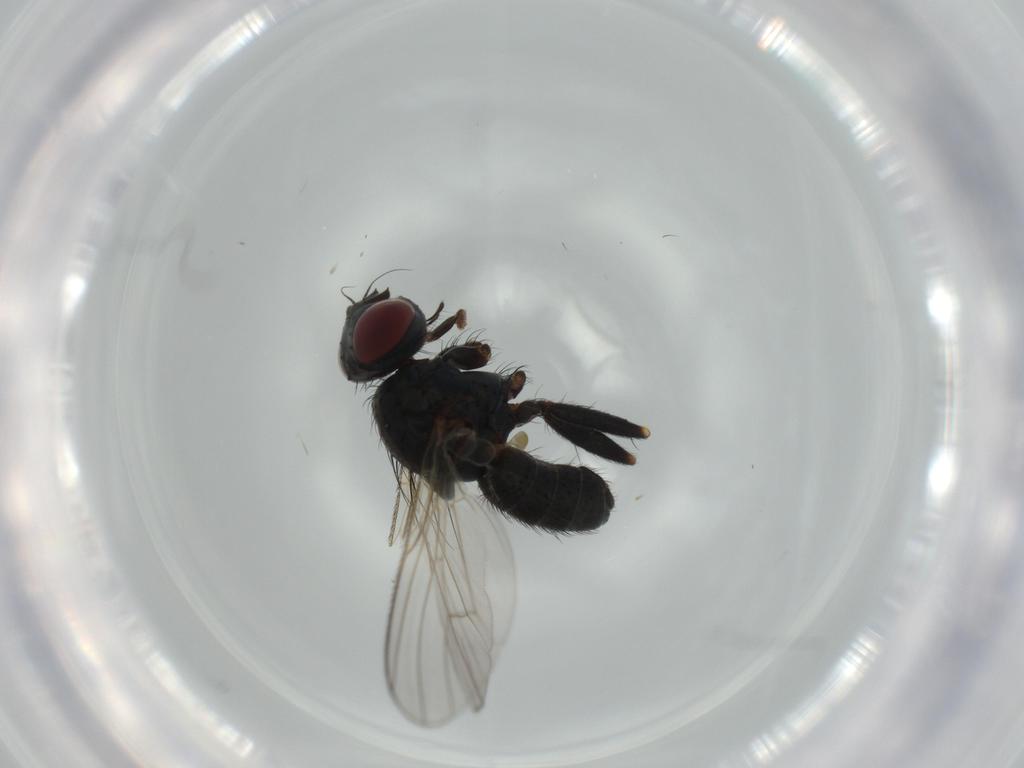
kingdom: Animalia
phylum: Arthropoda
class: Insecta
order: Diptera
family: Muscidae
